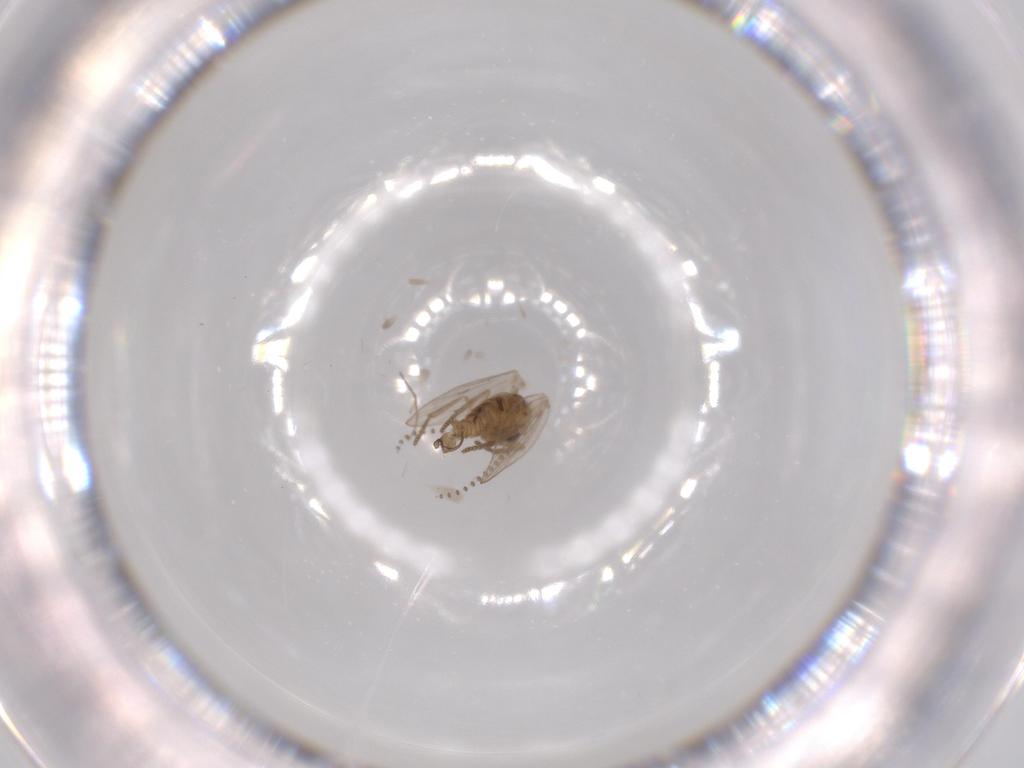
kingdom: Animalia
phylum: Arthropoda
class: Insecta
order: Diptera
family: Psychodidae
